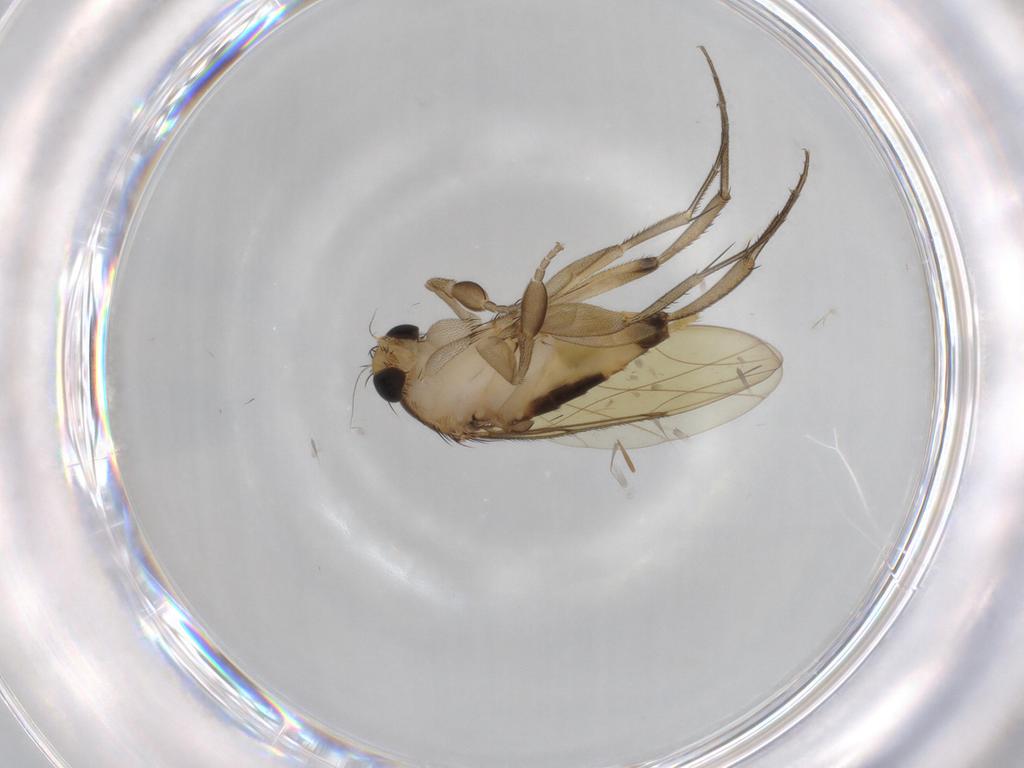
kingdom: Animalia
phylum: Arthropoda
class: Insecta
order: Diptera
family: Phoridae
